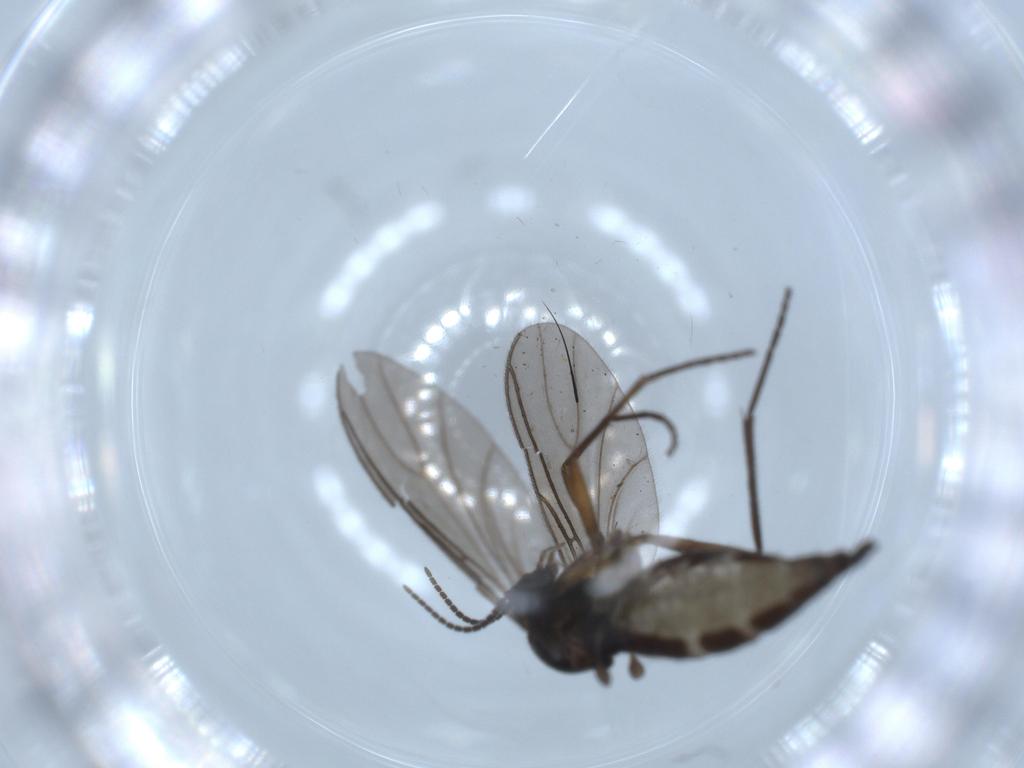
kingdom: Animalia
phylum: Arthropoda
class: Insecta
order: Diptera
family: Sciaridae
